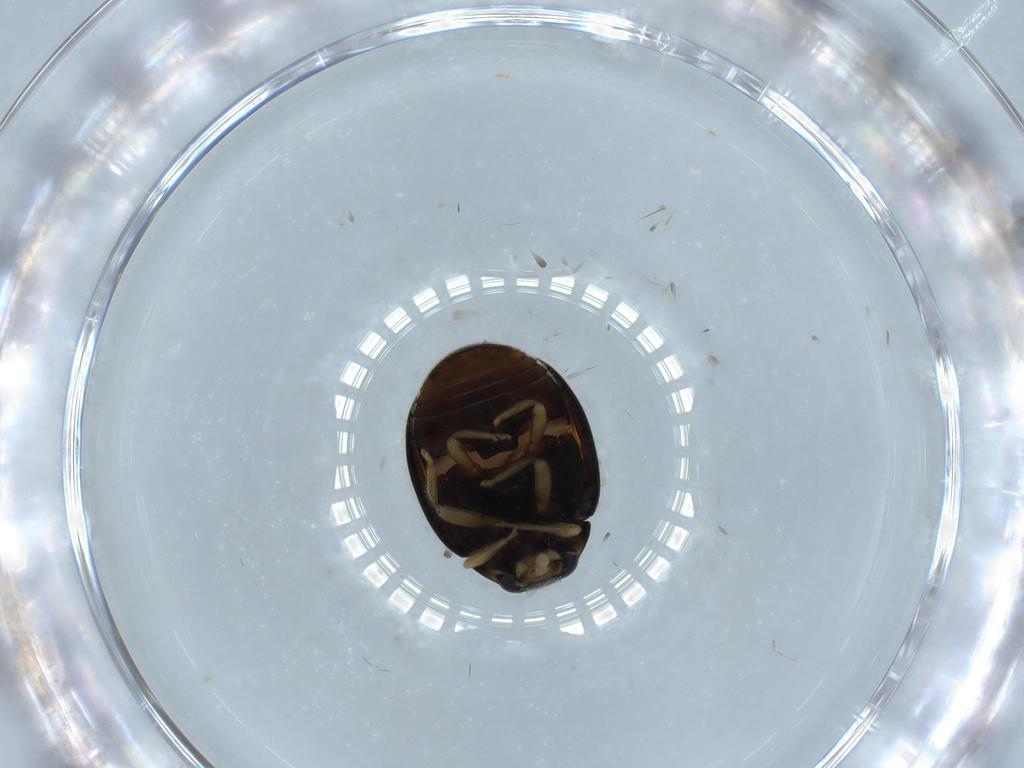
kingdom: Animalia
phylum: Arthropoda
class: Insecta
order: Coleoptera
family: Coccinellidae
